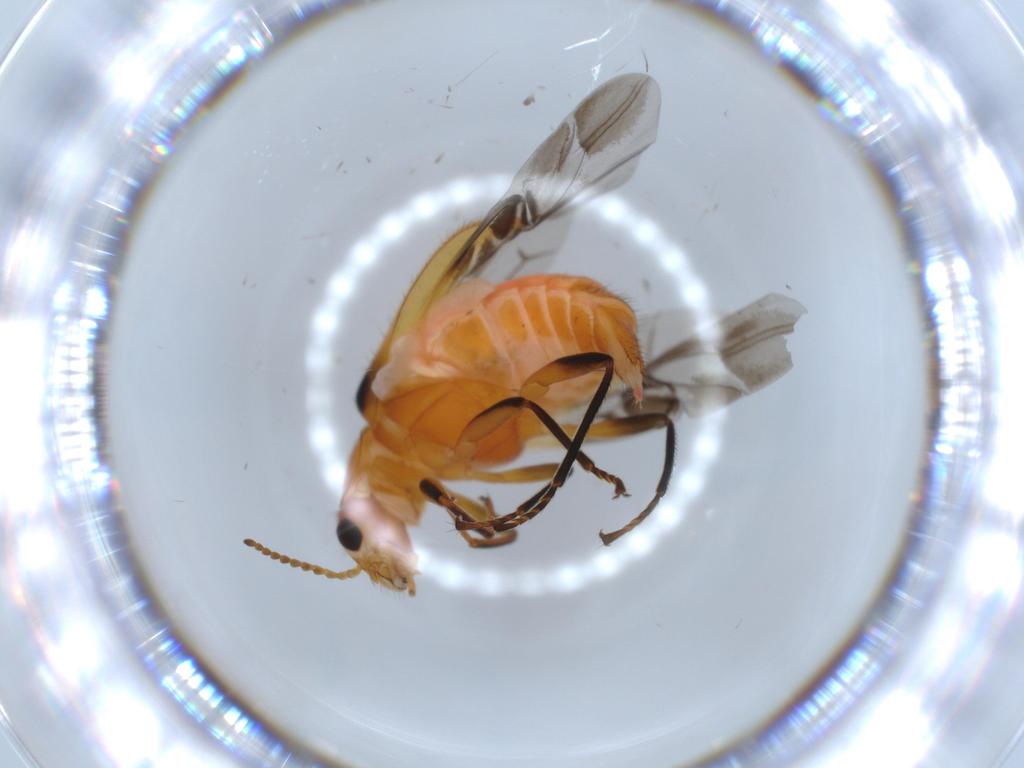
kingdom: Animalia
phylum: Arthropoda
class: Insecta
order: Coleoptera
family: Melyridae
